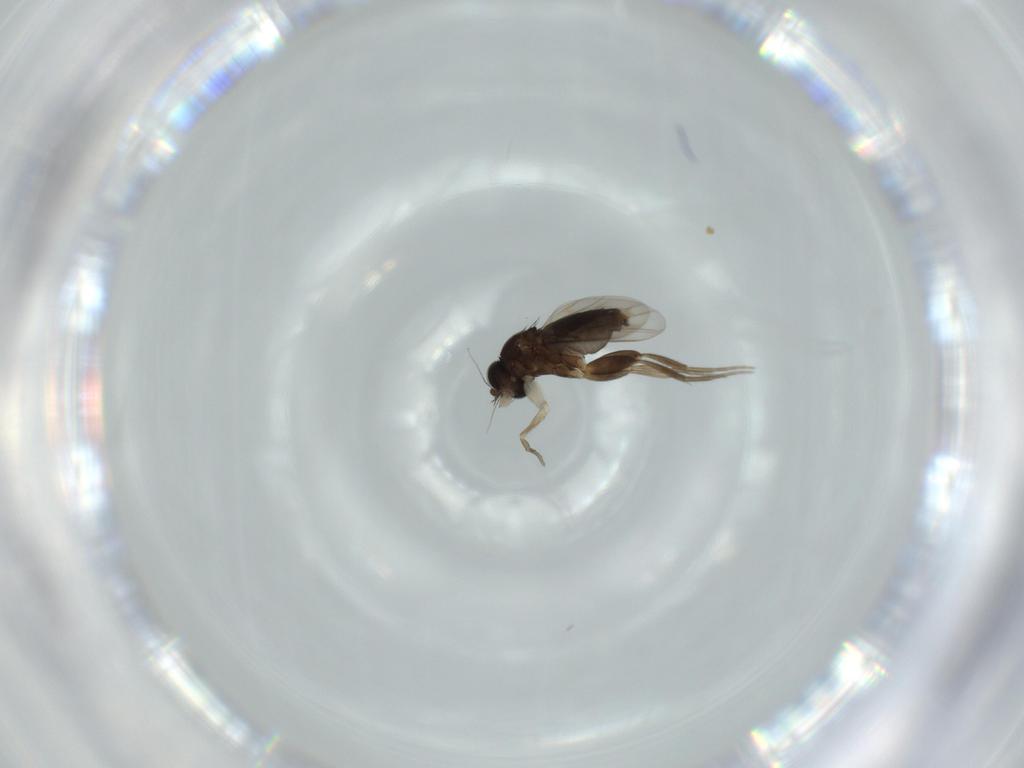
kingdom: Animalia
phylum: Arthropoda
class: Insecta
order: Diptera
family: Phoridae
